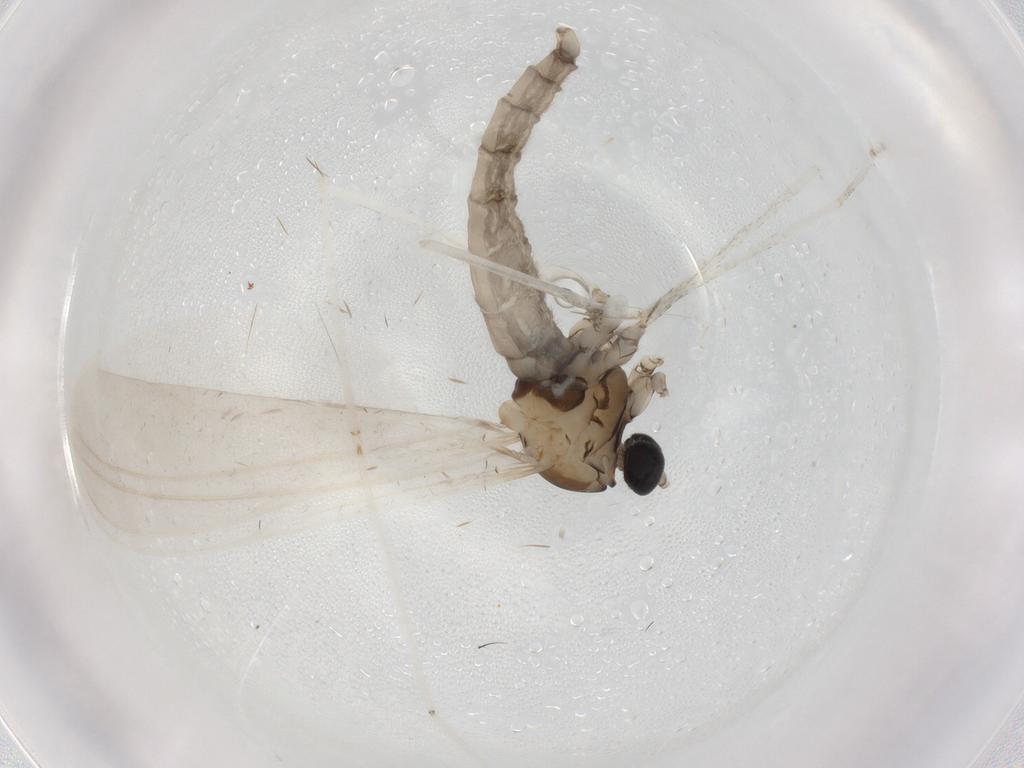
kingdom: Animalia
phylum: Arthropoda
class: Insecta
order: Diptera
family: Cecidomyiidae
